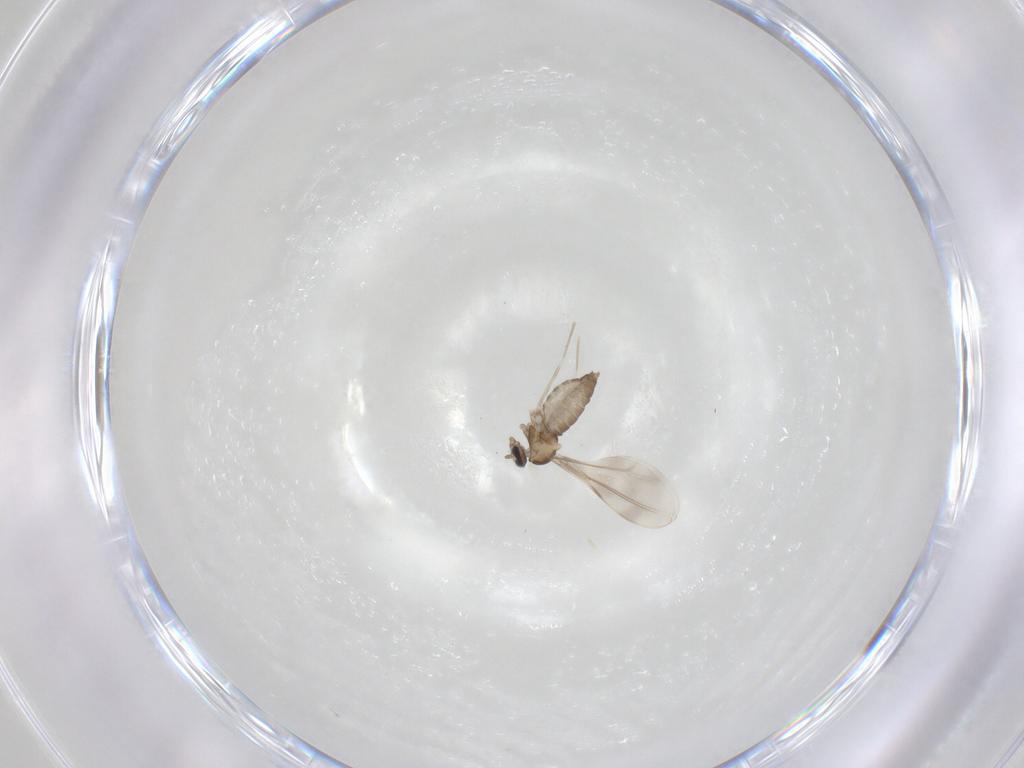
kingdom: Animalia
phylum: Arthropoda
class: Insecta
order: Diptera
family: Cecidomyiidae
